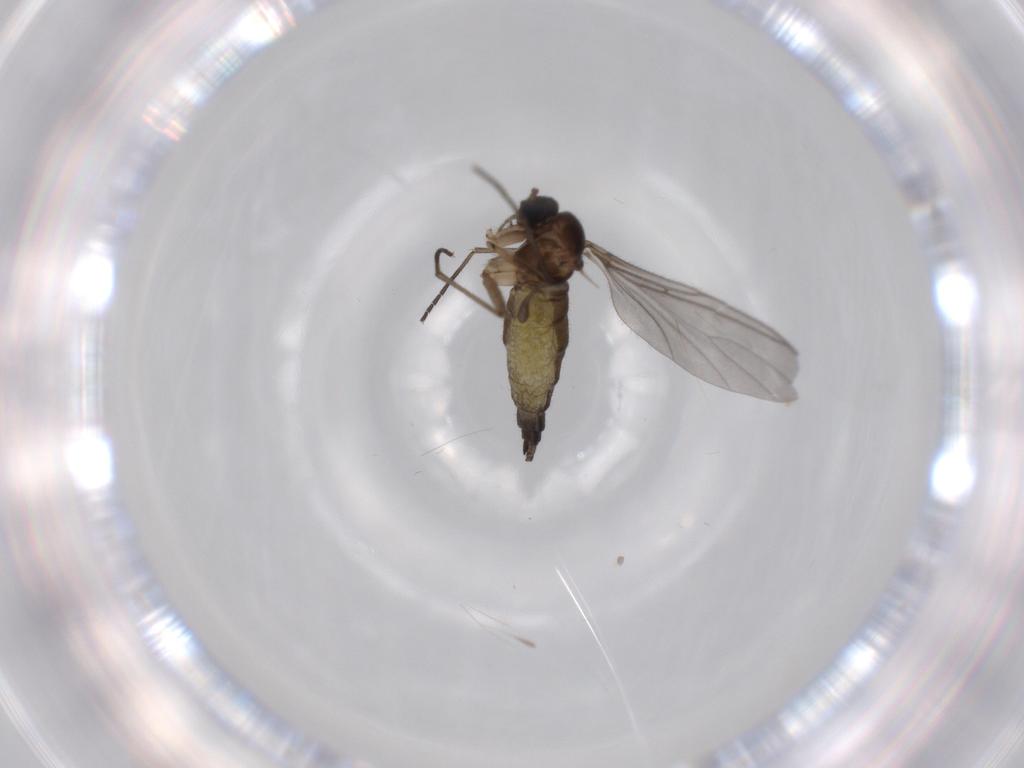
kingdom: Animalia
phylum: Arthropoda
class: Insecta
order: Diptera
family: Sciaridae
